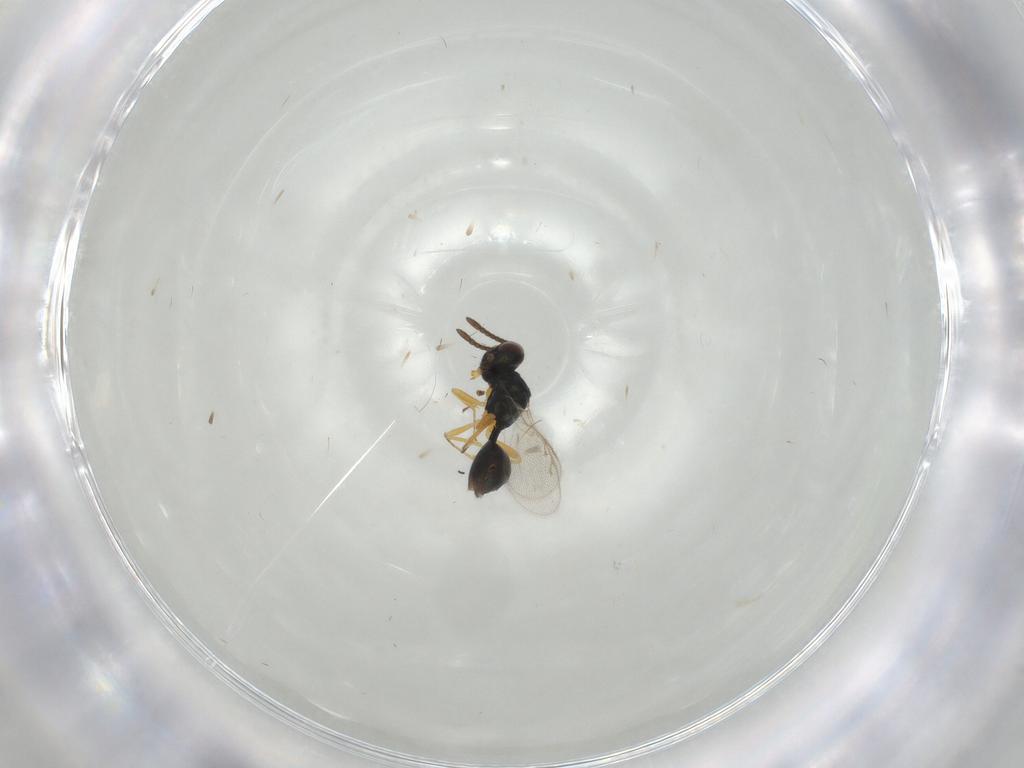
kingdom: Animalia
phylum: Arthropoda
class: Insecta
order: Hymenoptera
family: Pteromalidae
